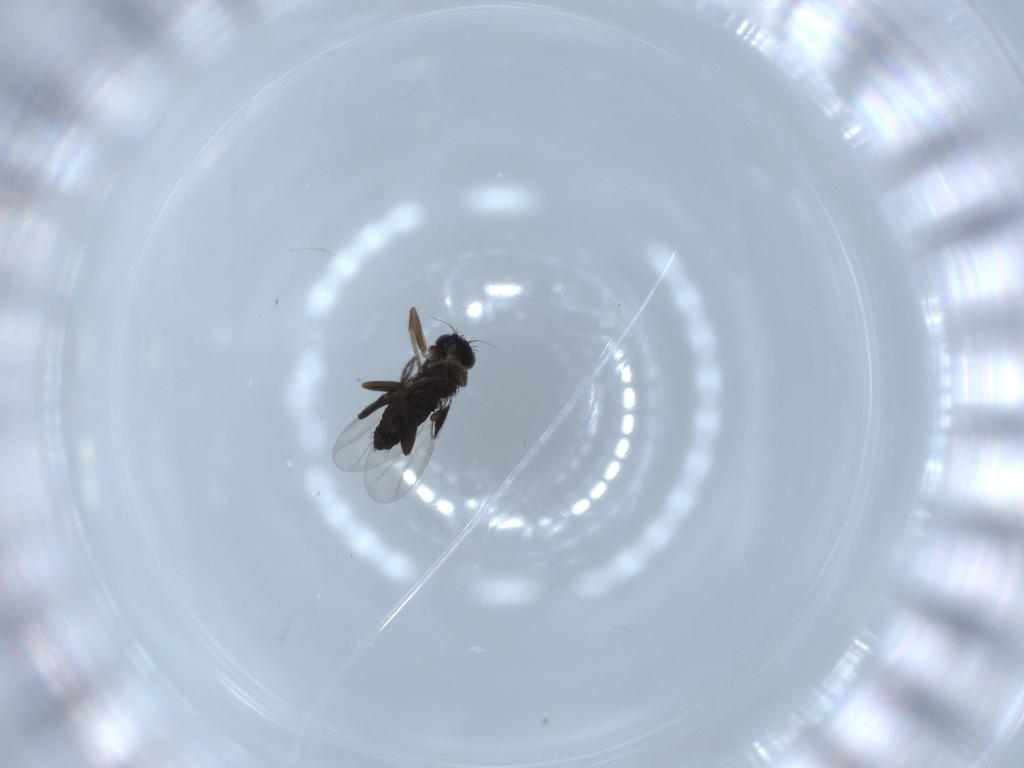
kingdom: Animalia
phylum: Arthropoda
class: Insecta
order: Diptera
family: Phoridae
